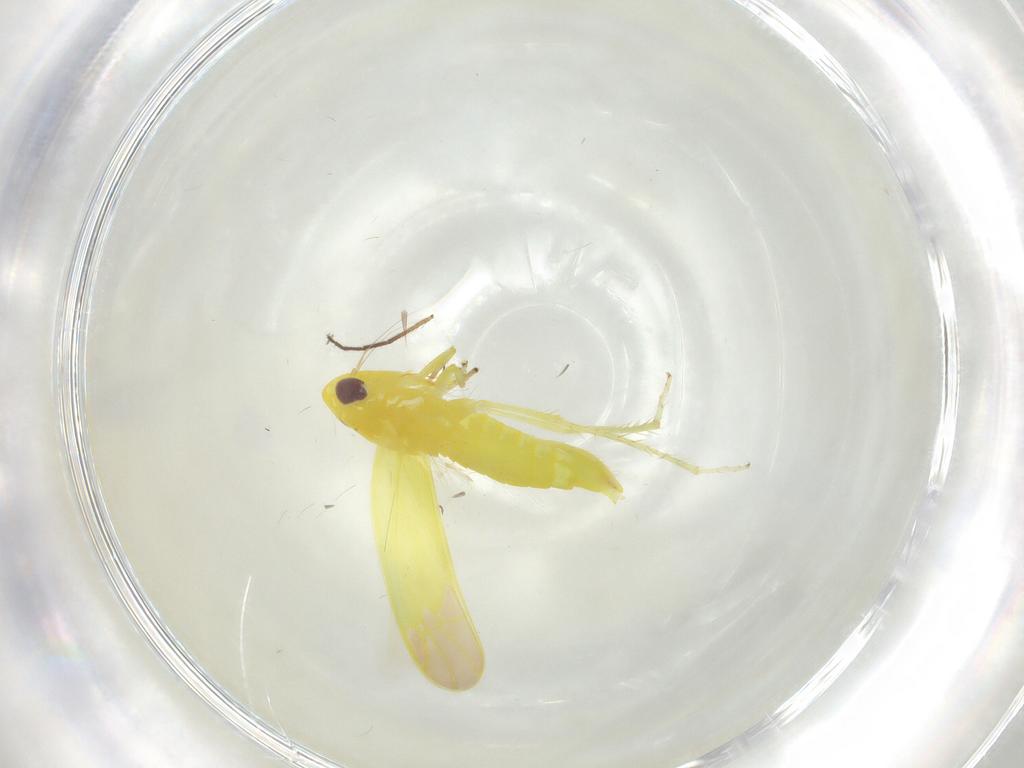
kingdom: Animalia
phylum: Arthropoda
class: Insecta
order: Hemiptera
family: Cicadellidae
